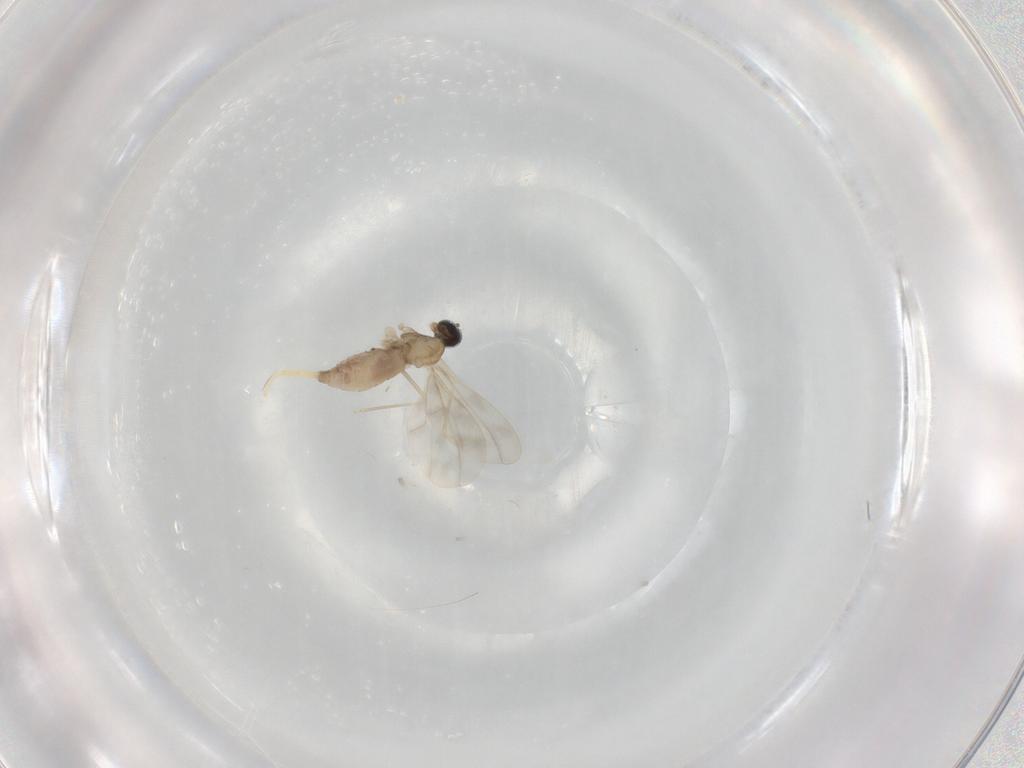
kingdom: Animalia
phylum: Arthropoda
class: Insecta
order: Diptera
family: Cecidomyiidae
